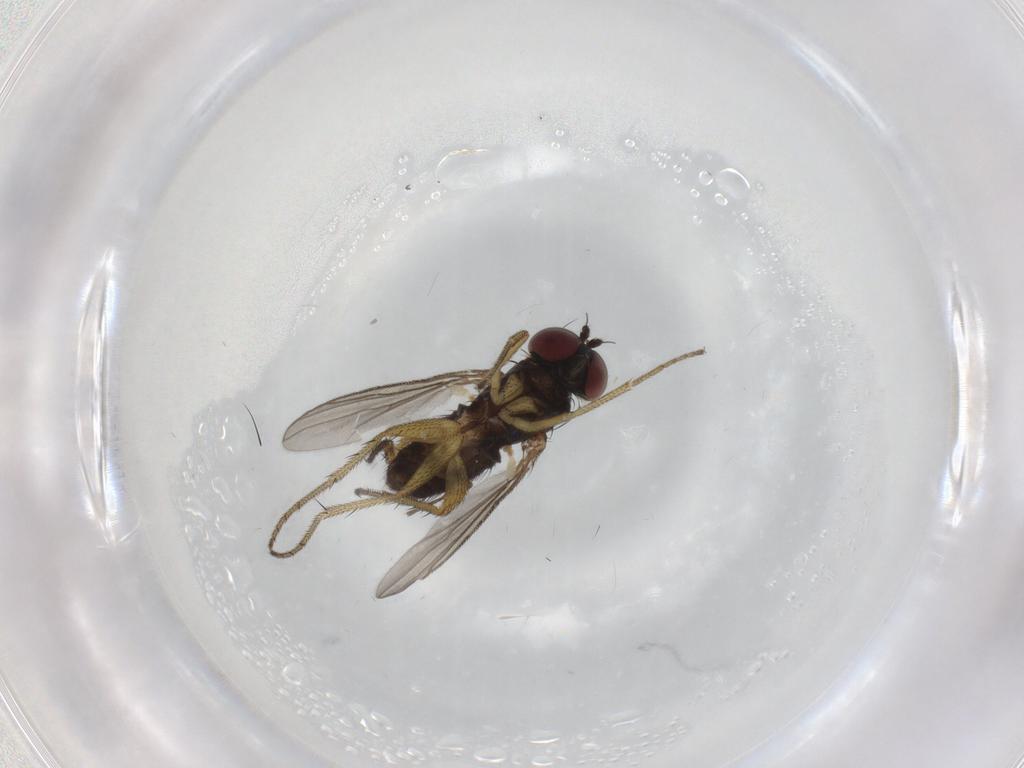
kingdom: Animalia
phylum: Arthropoda
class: Insecta
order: Diptera
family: Dolichopodidae
